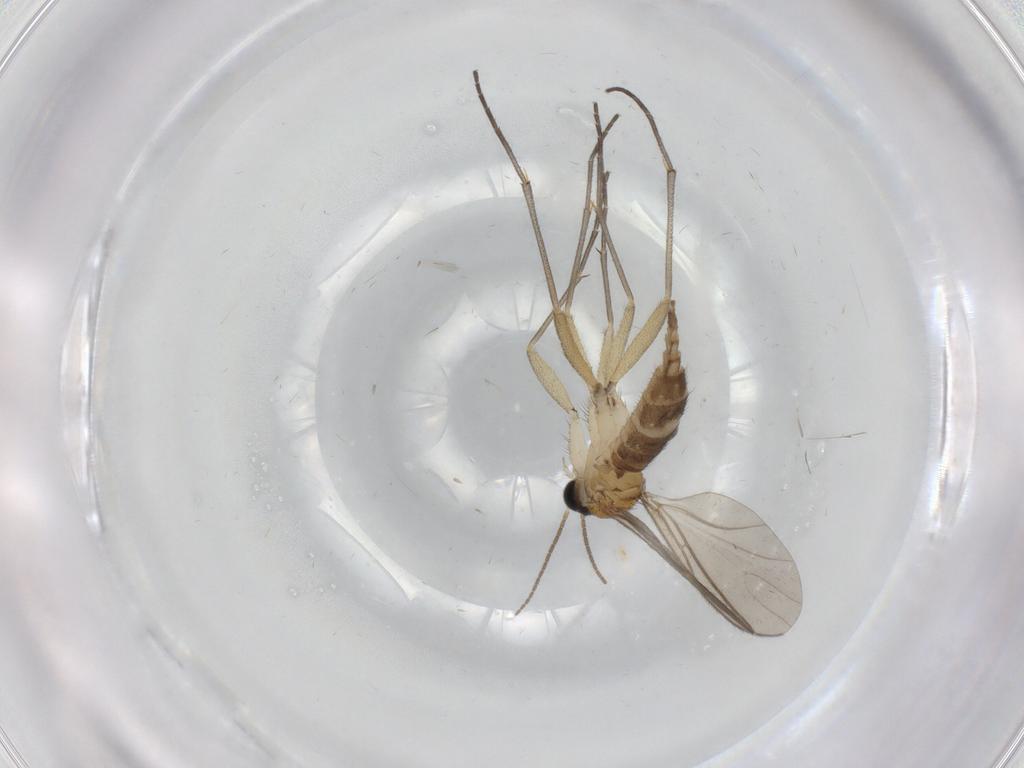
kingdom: Animalia
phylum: Arthropoda
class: Insecta
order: Diptera
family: Sciaridae
